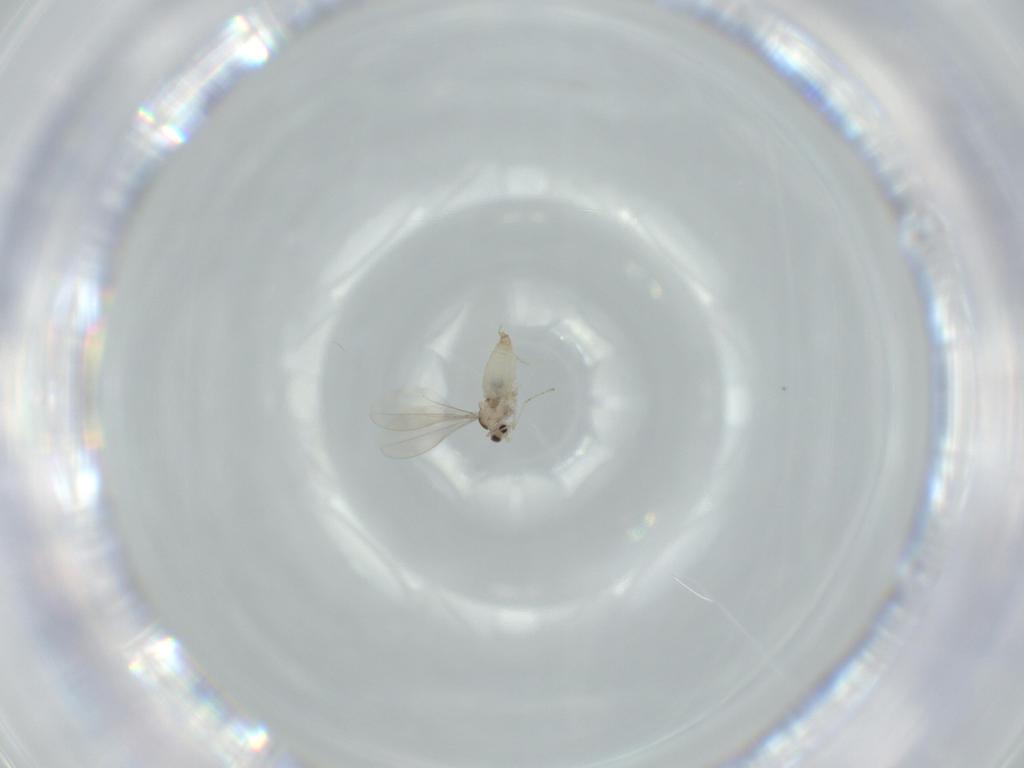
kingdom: Animalia
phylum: Arthropoda
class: Insecta
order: Diptera
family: Cecidomyiidae
